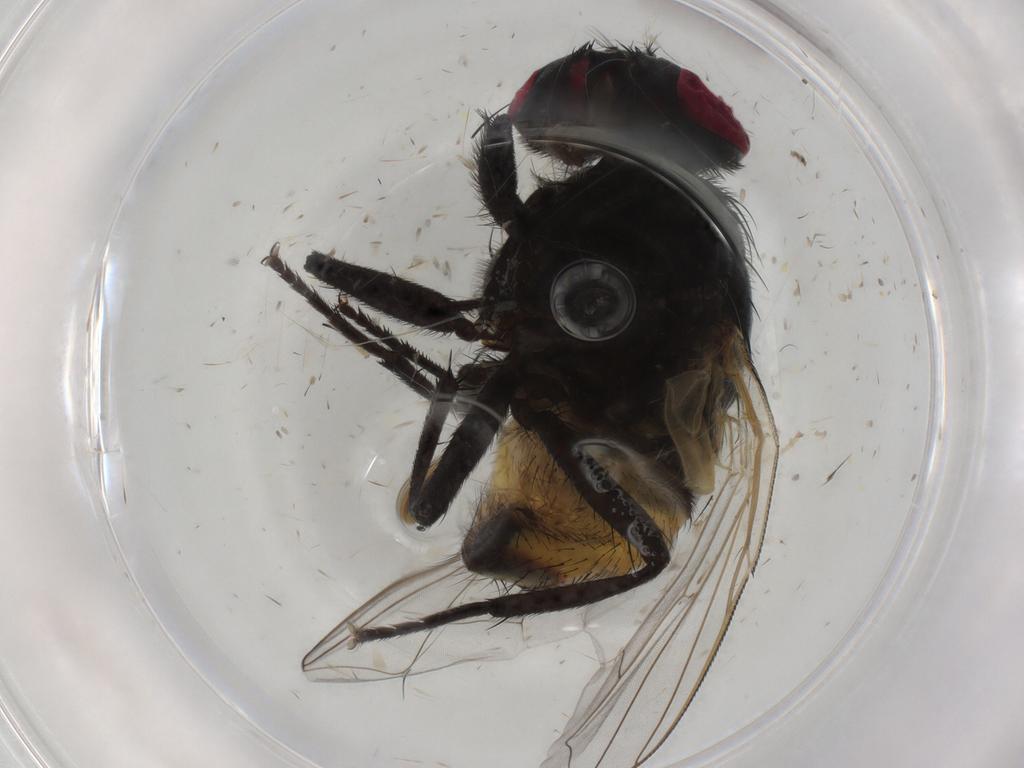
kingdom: Animalia
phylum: Arthropoda
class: Insecta
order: Diptera
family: Muscidae
